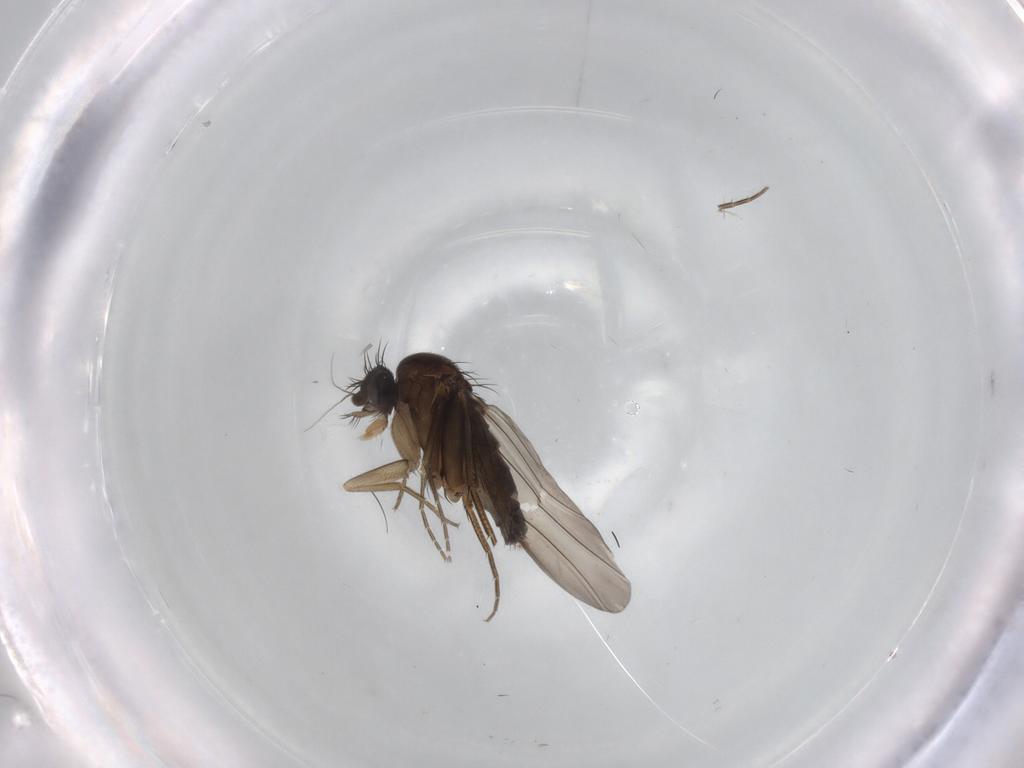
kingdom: Animalia
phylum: Arthropoda
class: Insecta
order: Diptera
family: Phoridae
